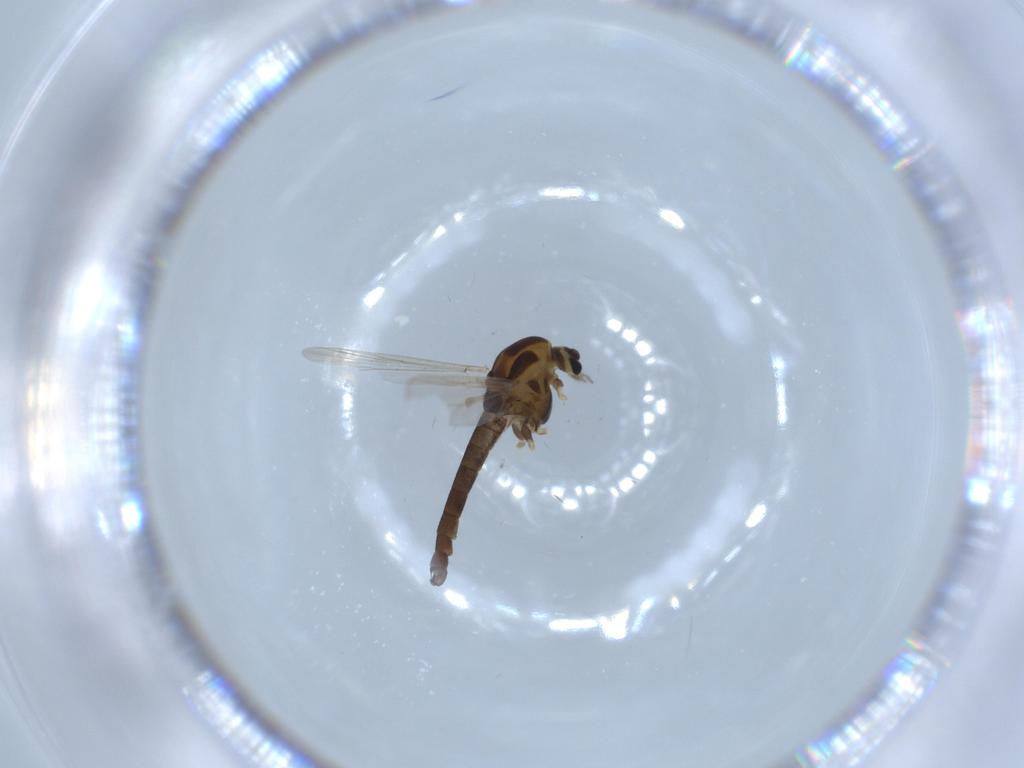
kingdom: Animalia
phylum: Arthropoda
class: Insecta
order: Diptera
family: Chironomidae
